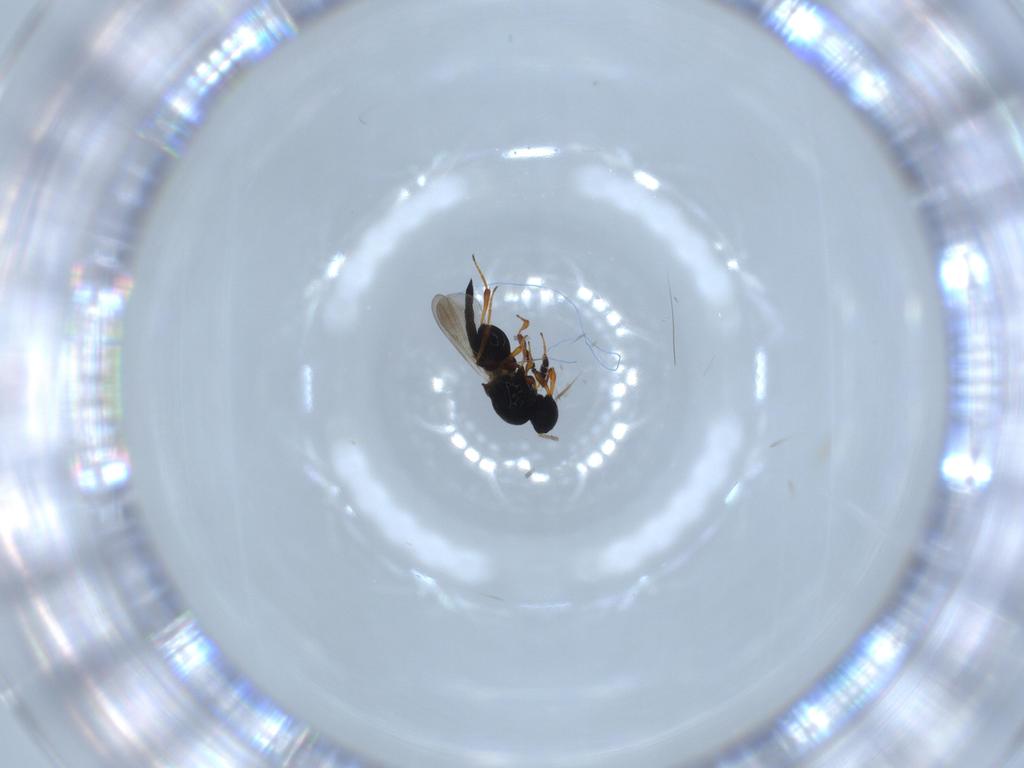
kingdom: Animalia
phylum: Arthropoda
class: Insecta
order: Hymenoptera
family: Platygastridae
